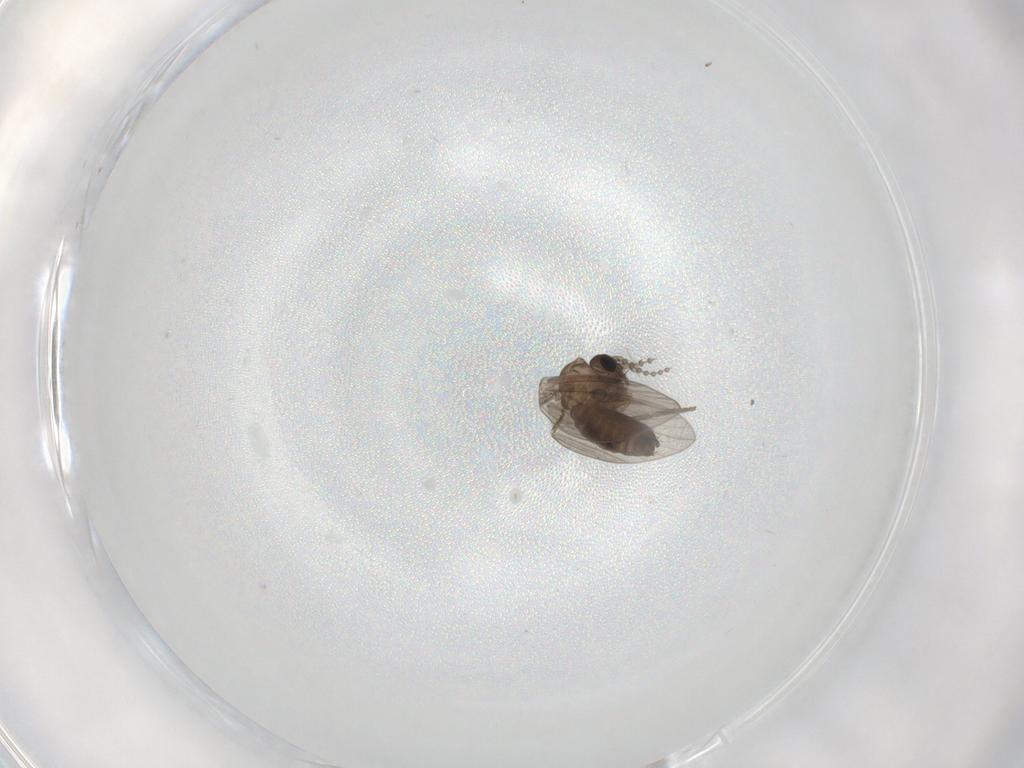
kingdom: Animalia
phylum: Arthropoda
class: Insecta
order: Diptera
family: Psychodidae
